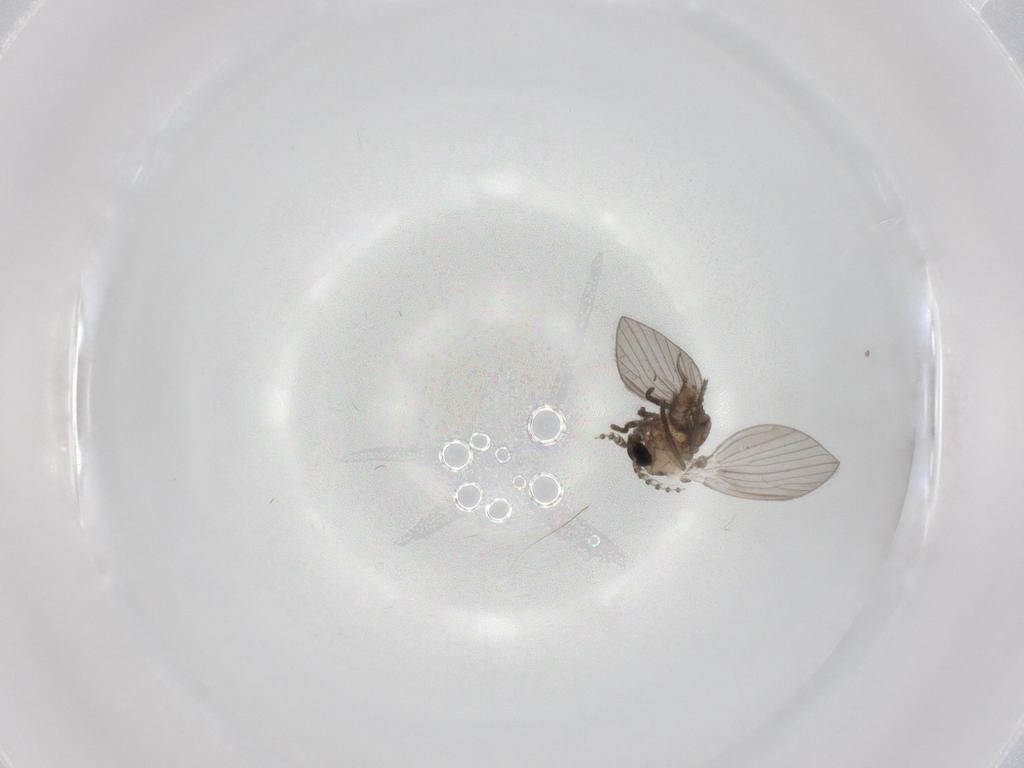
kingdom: Animalia
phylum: Arthropoda
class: Insecta
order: Diptera
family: Psychodidae
